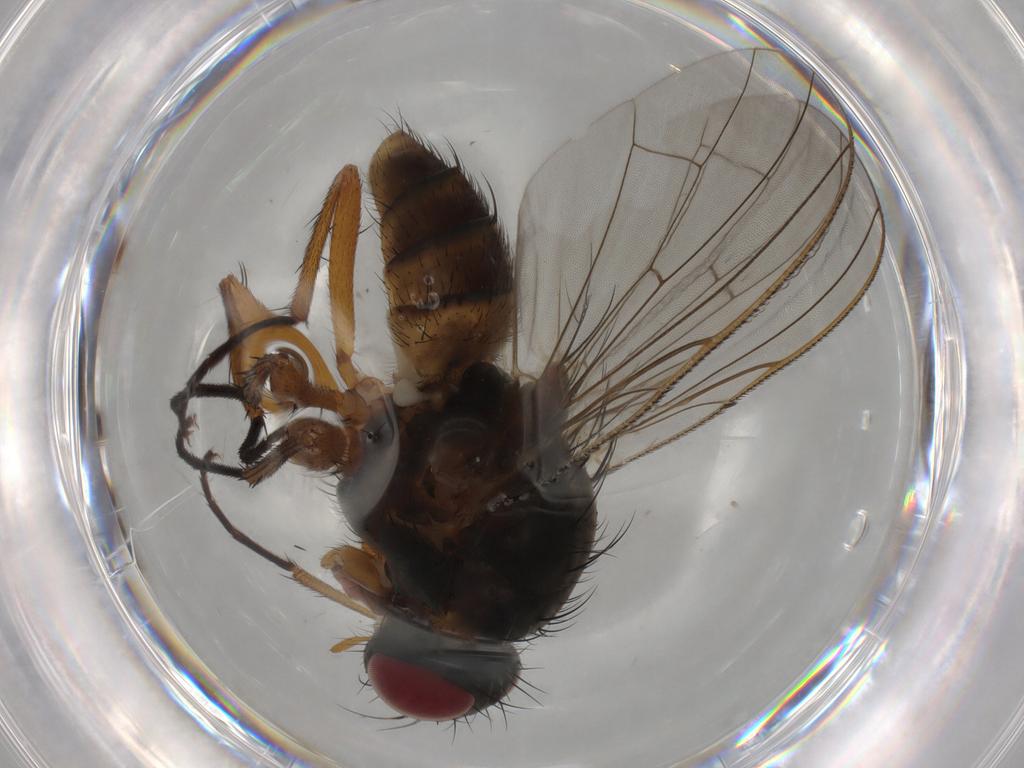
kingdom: Animalia
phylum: Arthropoda
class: Insecta
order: Diptera
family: Anthomyiidae
